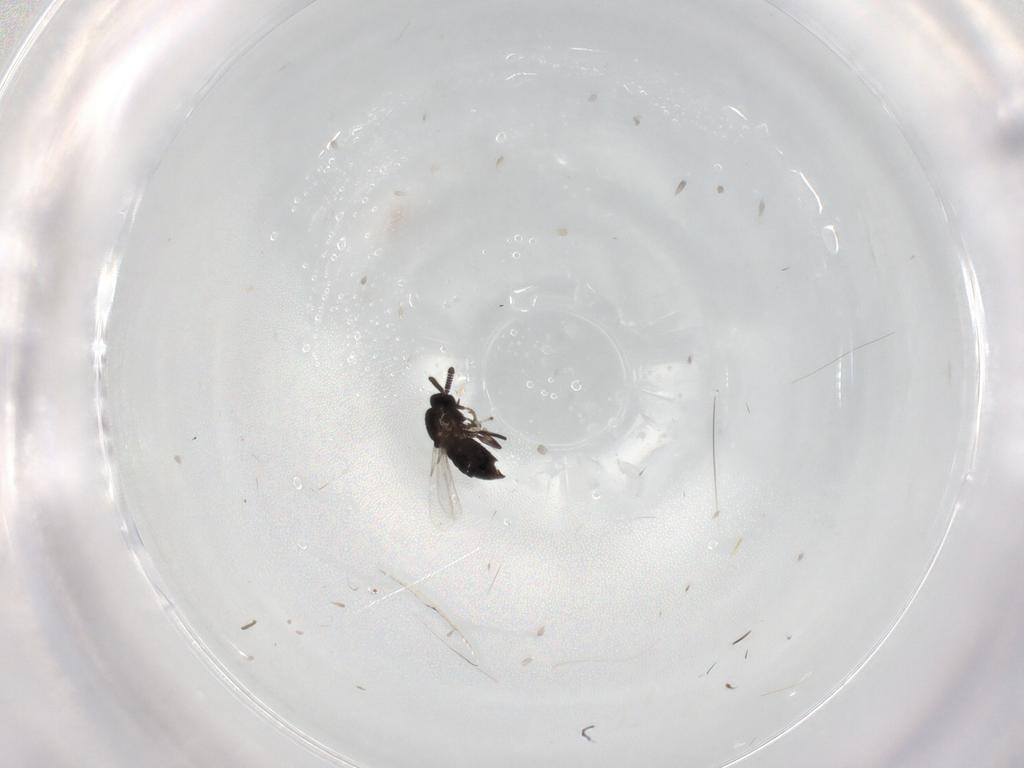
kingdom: Animalia
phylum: Arthropoda
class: Insecta
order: Diptera
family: Scatopsidae
